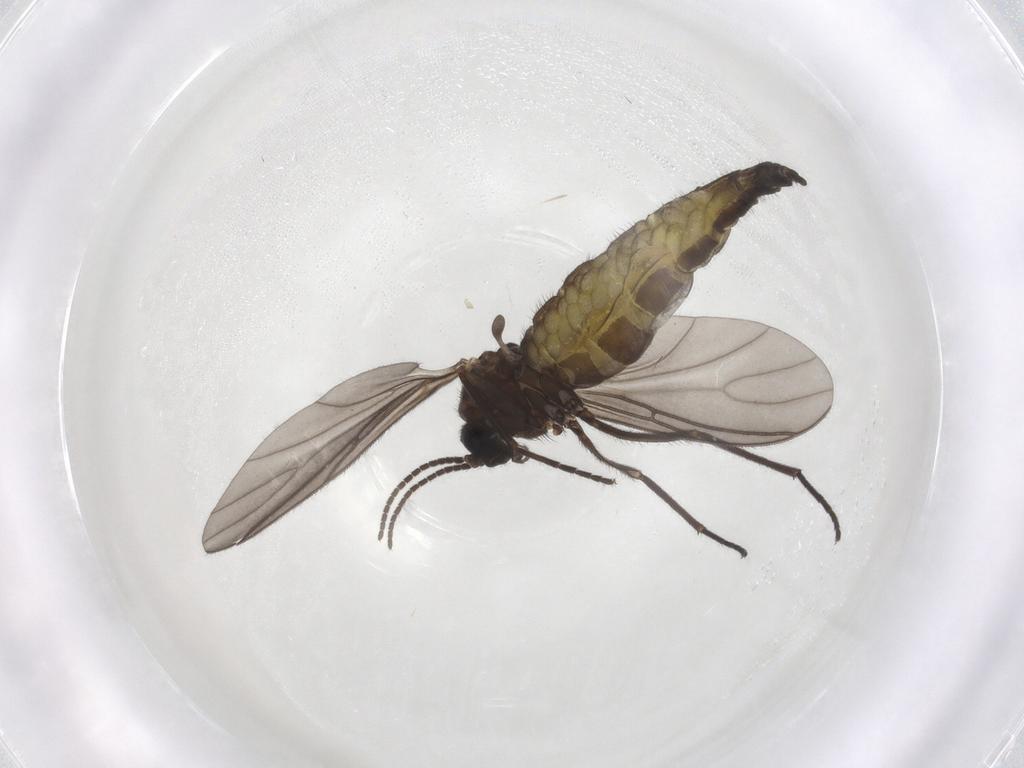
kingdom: Animalia
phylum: Arthropoda
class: Insecta
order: Diptera
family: Sciaridae
